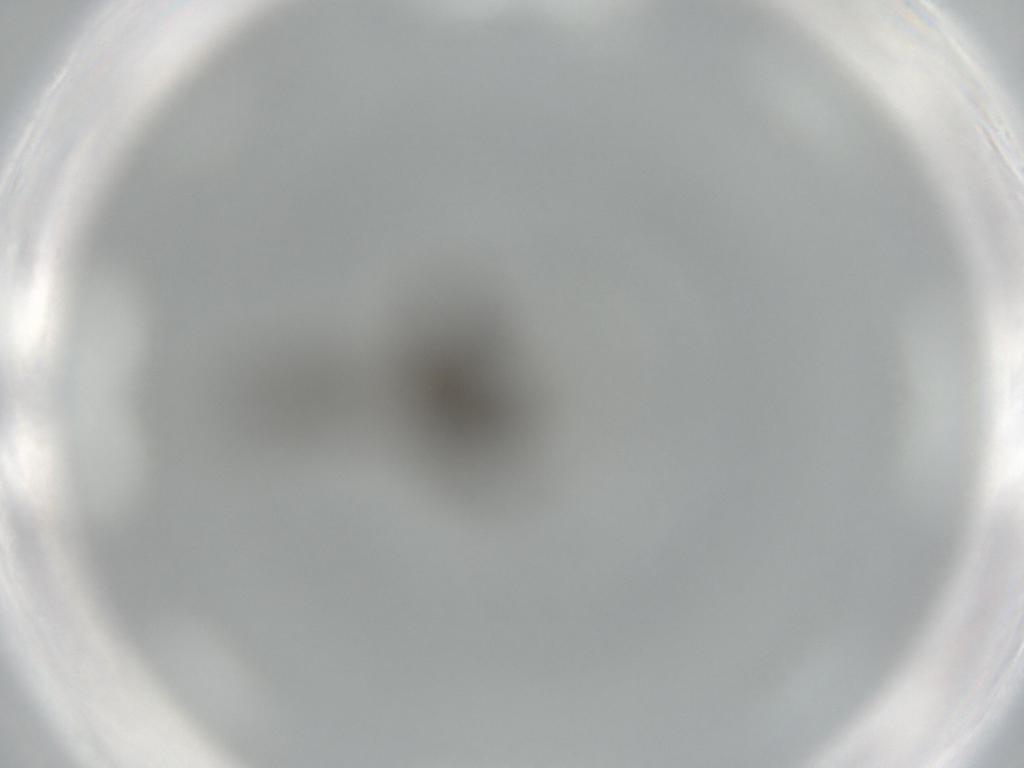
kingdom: Animalia
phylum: Arthropoda
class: Insecta
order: Diptera
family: Cecidomyiidae
